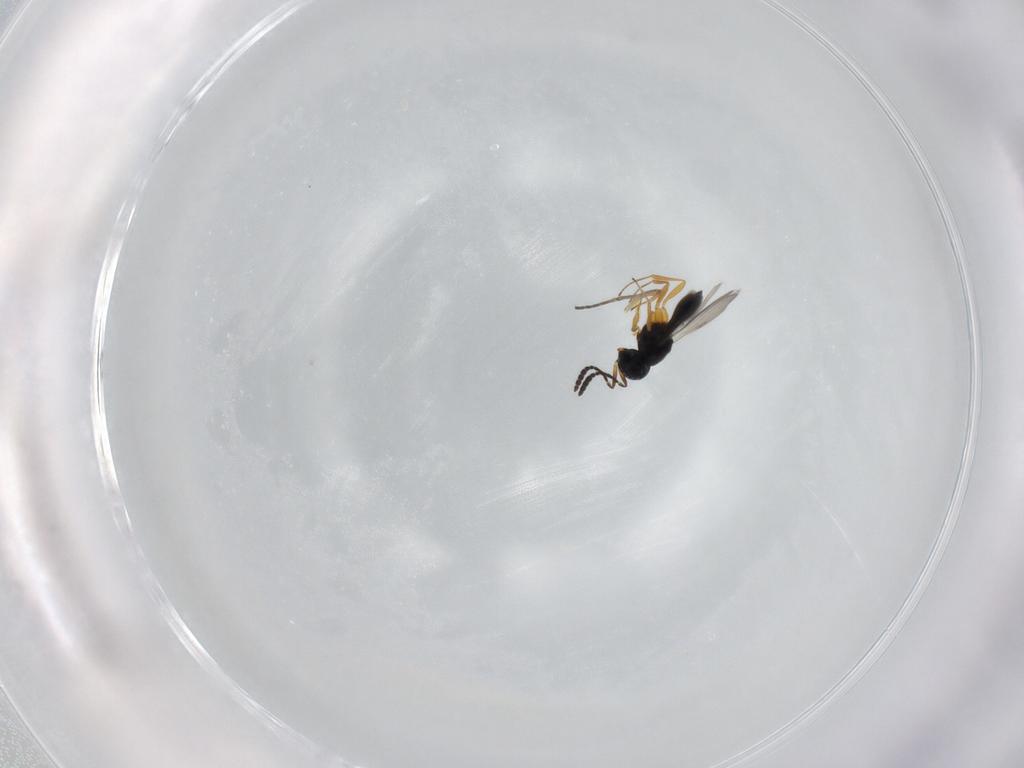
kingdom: Animalia
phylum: Arthropoda
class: Insecta
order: Hymenoptera
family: Scelionidae
